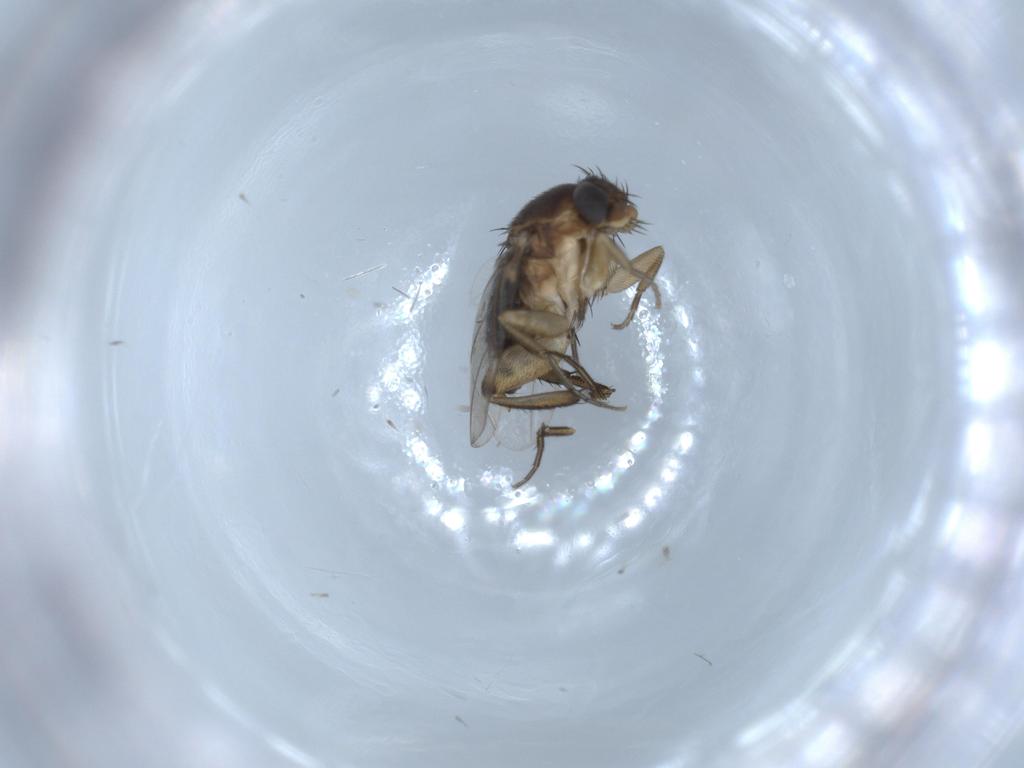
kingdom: Animalia
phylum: Arthropoda
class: Insecta
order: Diptera
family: Phoridae
